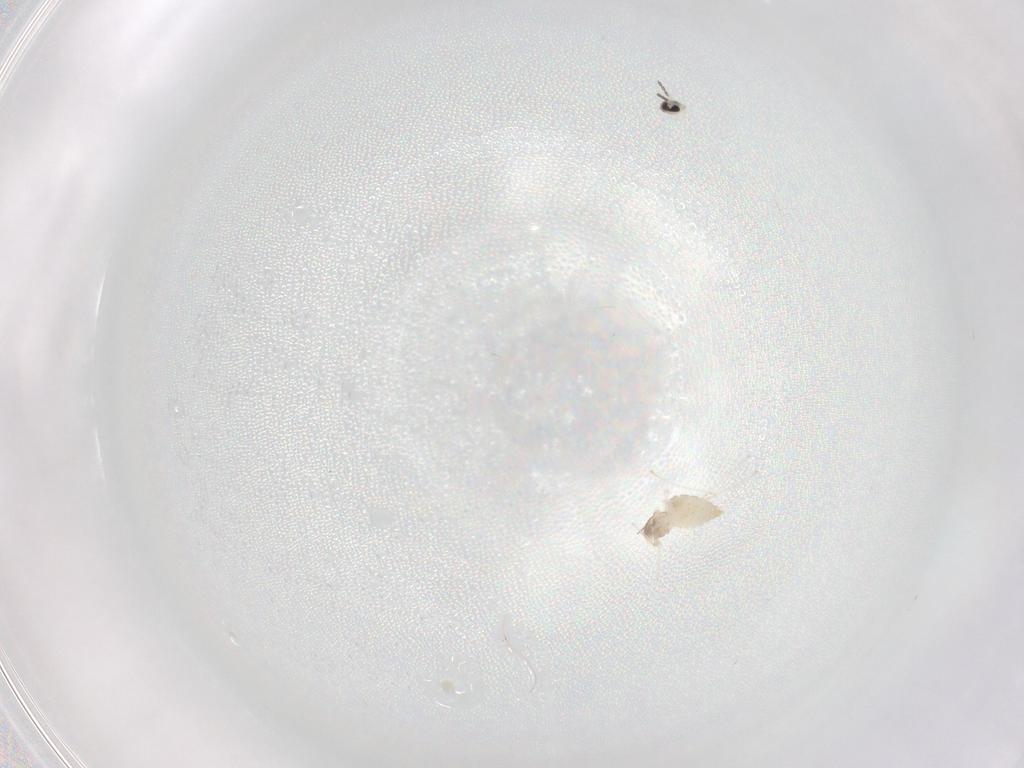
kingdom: Animalia
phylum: Arthropoda
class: Insecta
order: Diptera
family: Cecidomyiidae
